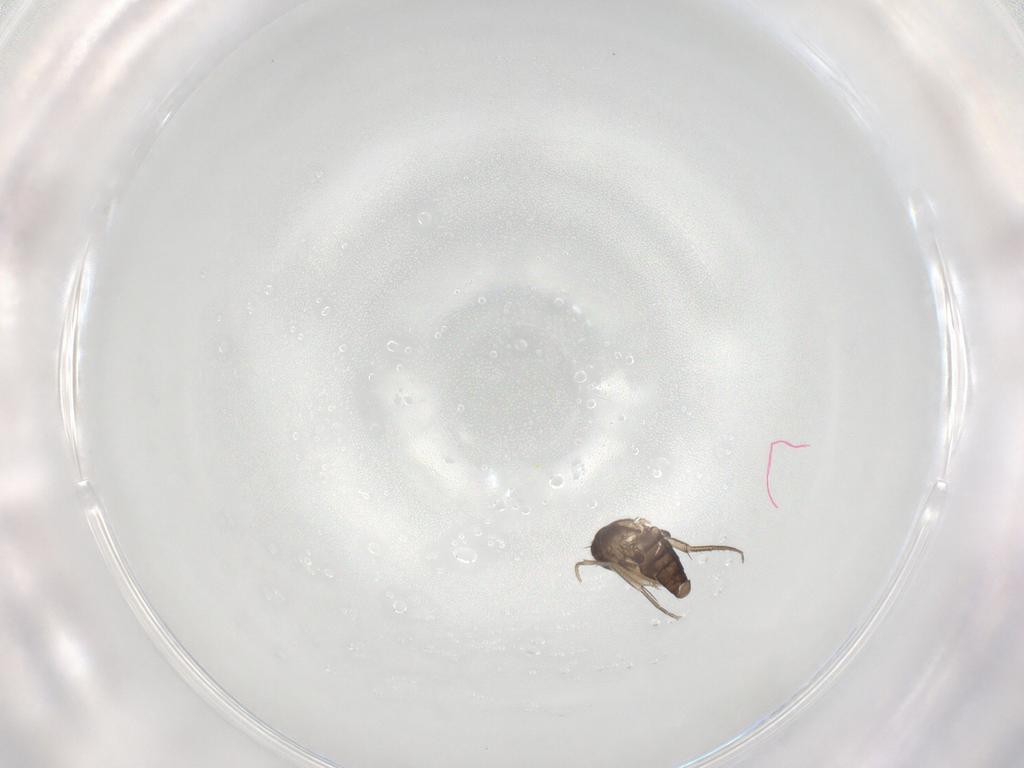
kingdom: Animalia
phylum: Arthropoda
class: Insecta
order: Diptera
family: Phoridae
